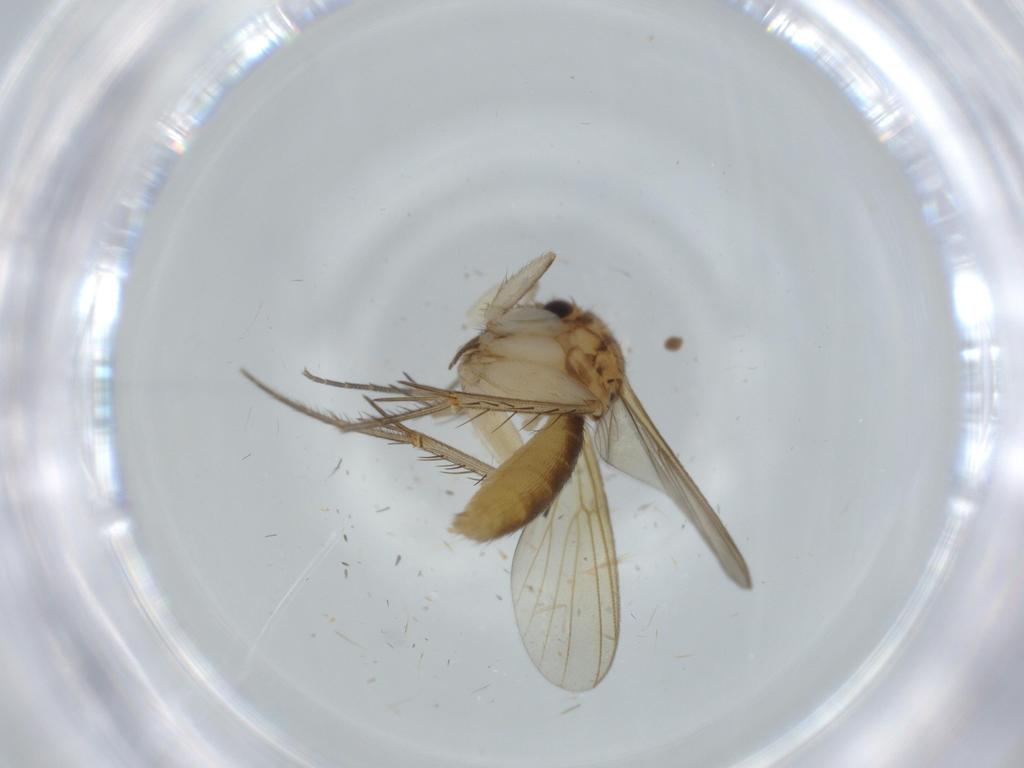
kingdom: Animalia
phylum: Arthropoda
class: Insecta
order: Diptera
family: Mycetophilidae
